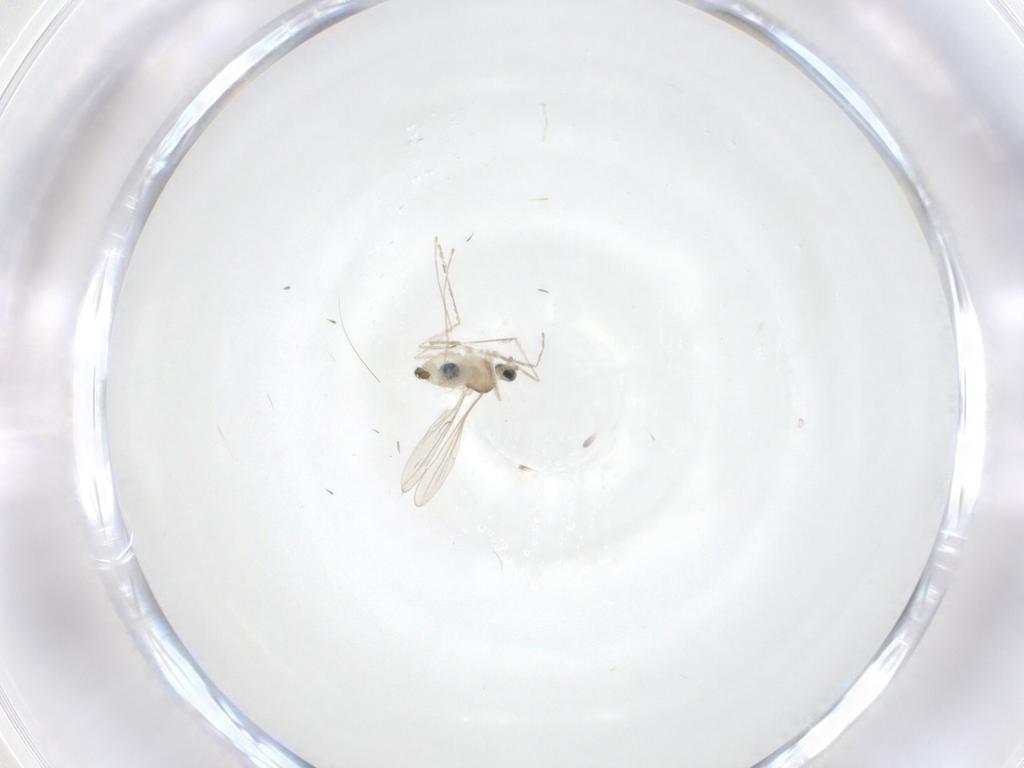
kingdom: Animalia
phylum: Arthropoda
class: Insecta
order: Diptera
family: Cecidomyiidae
